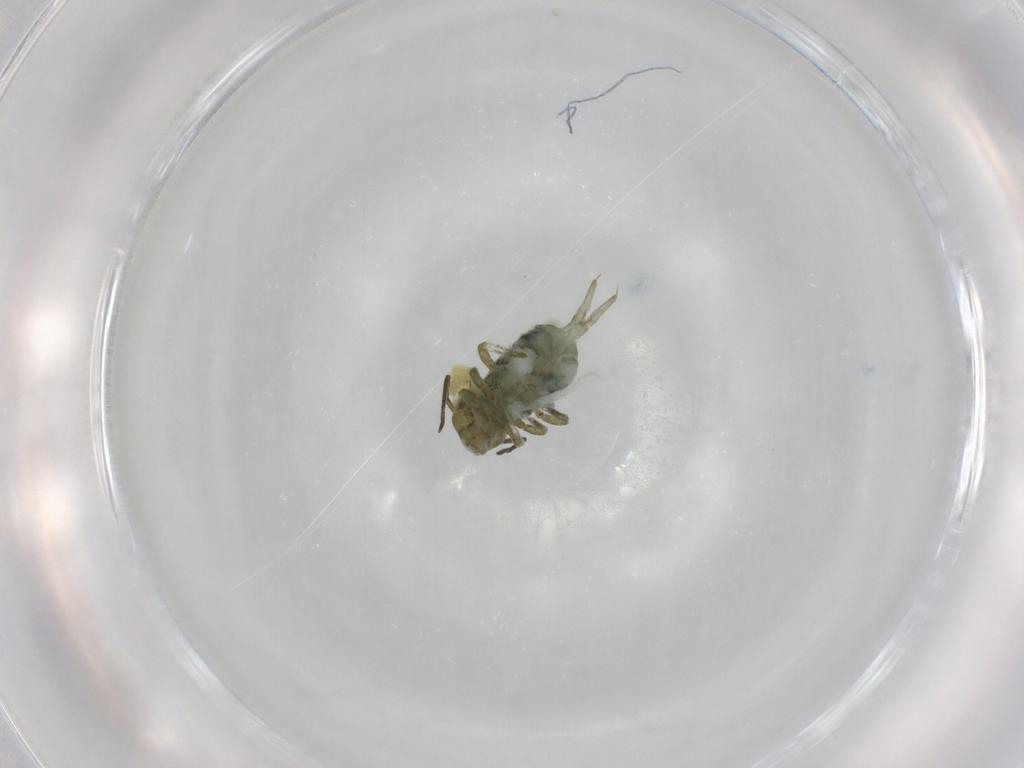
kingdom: Animalia
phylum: Arthropoda
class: Collembola
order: Symphypleona
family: Sminthuridae
